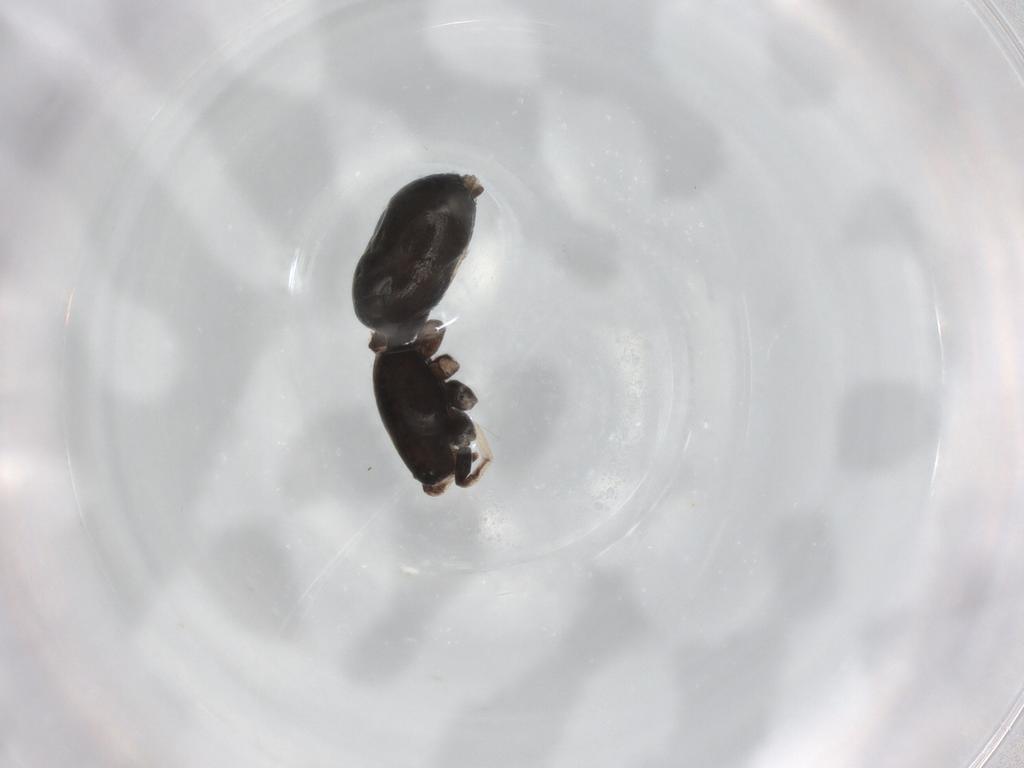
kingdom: Animalia
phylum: Arthropoda
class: Arachnida
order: Araneae
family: Gnaphosidae
